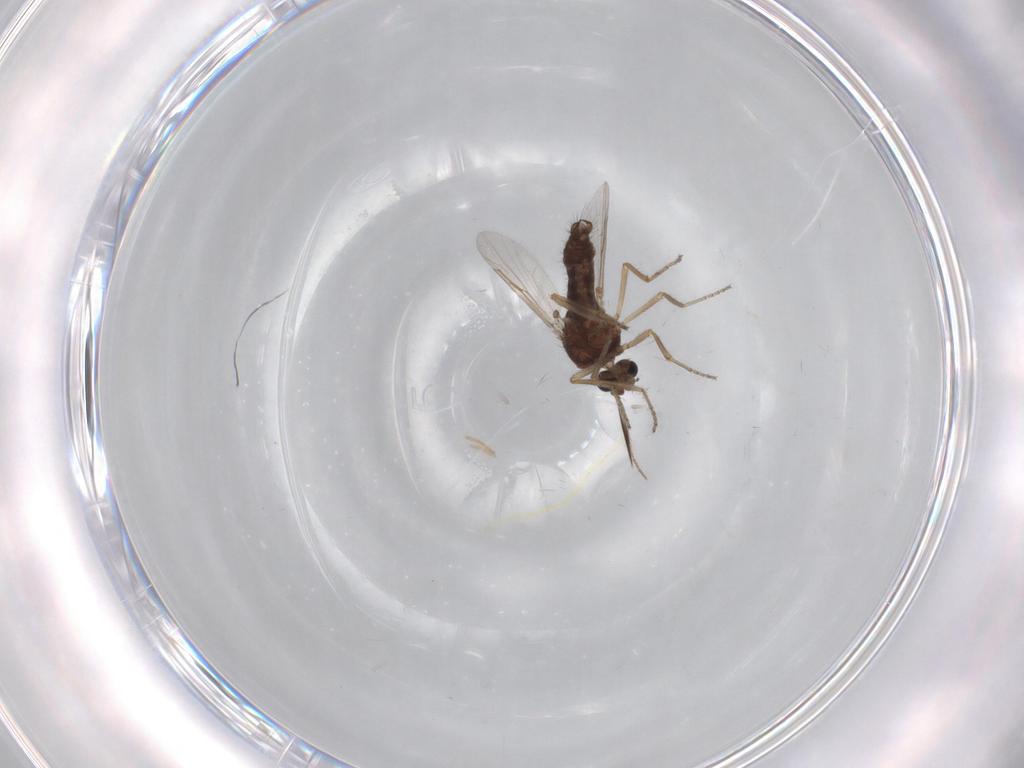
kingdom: Animalia
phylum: Arthropoda
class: Insecta
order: Diptera
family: Ceratopogonidae
